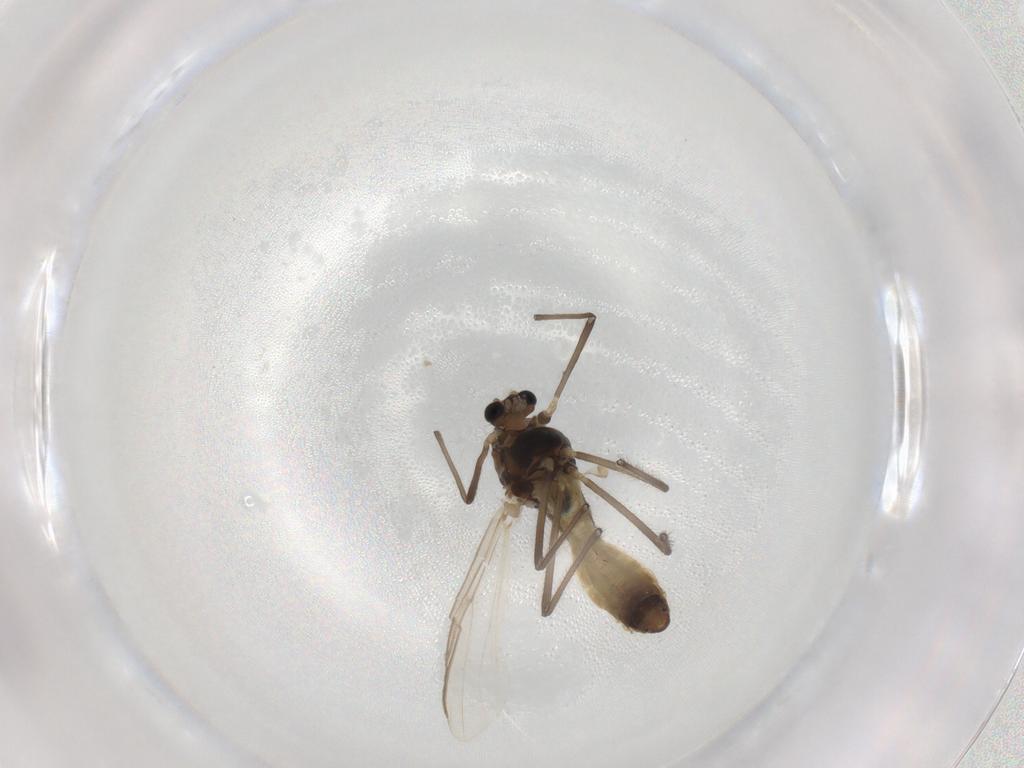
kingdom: Animalia
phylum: Arthropoda
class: Insecta
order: Diptera
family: Chironomidae
